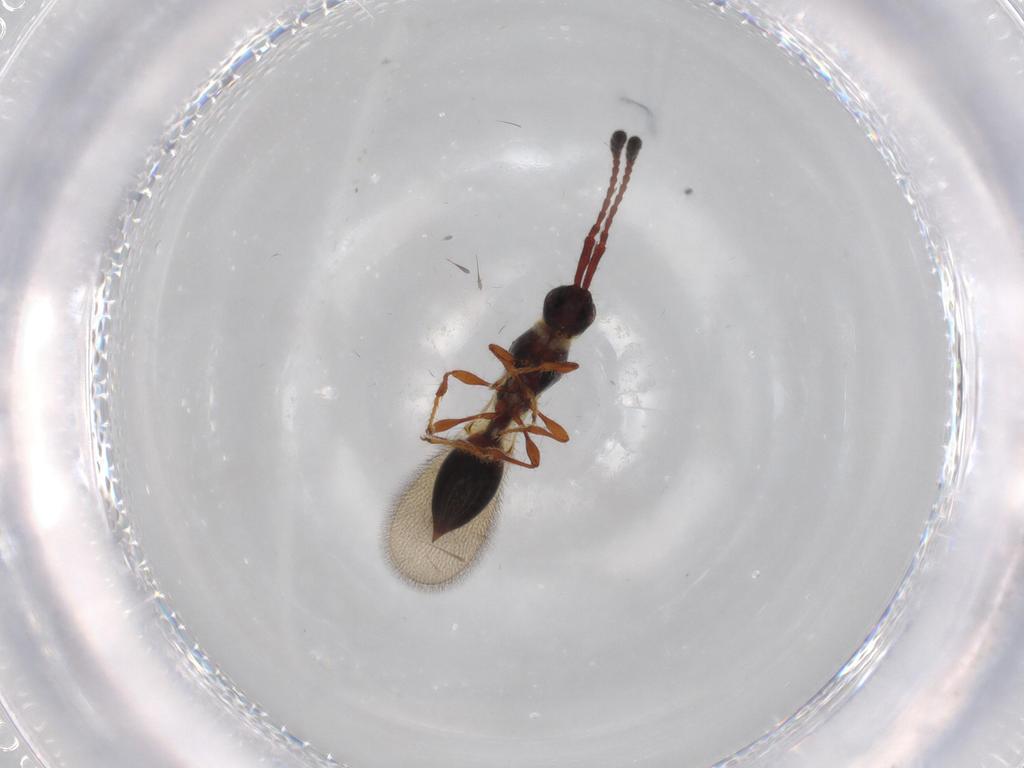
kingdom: Animalia
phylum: Arthropoda
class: Insecta
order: Hymenoptera
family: Diapriidae
